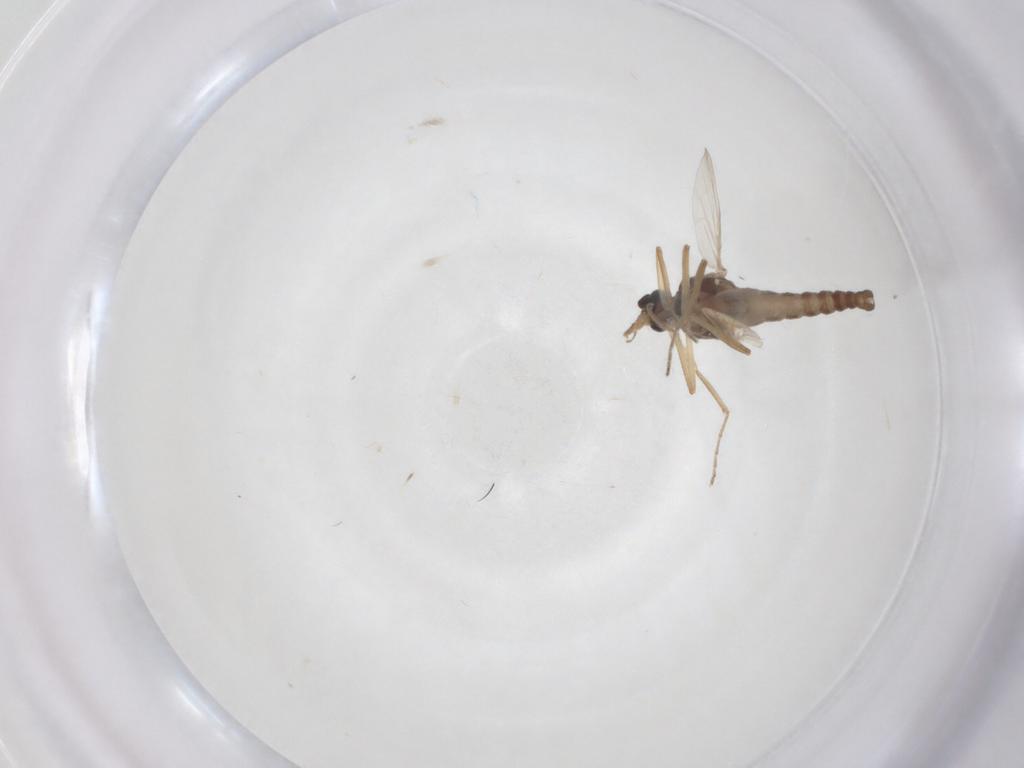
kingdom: Animalia
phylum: Arthropoda
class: Insecta
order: Diptera
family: Ceratopogonidae
